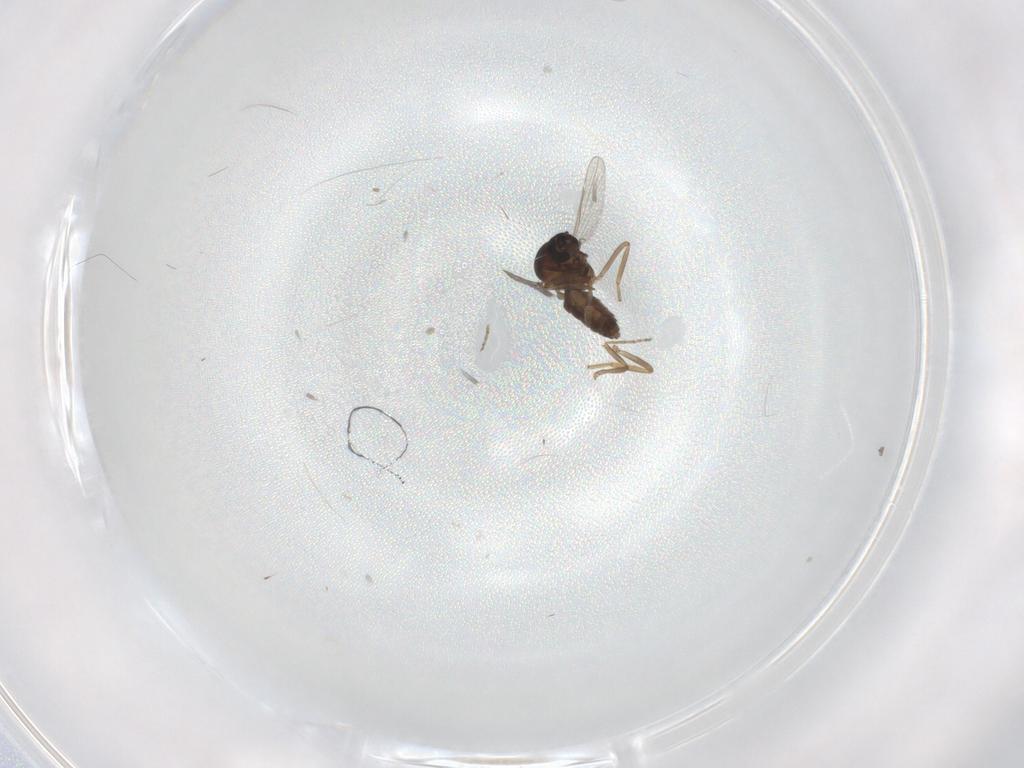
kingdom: Animalia
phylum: Arthropoda
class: Insecta
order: Diptera
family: Ceratopogonidae
